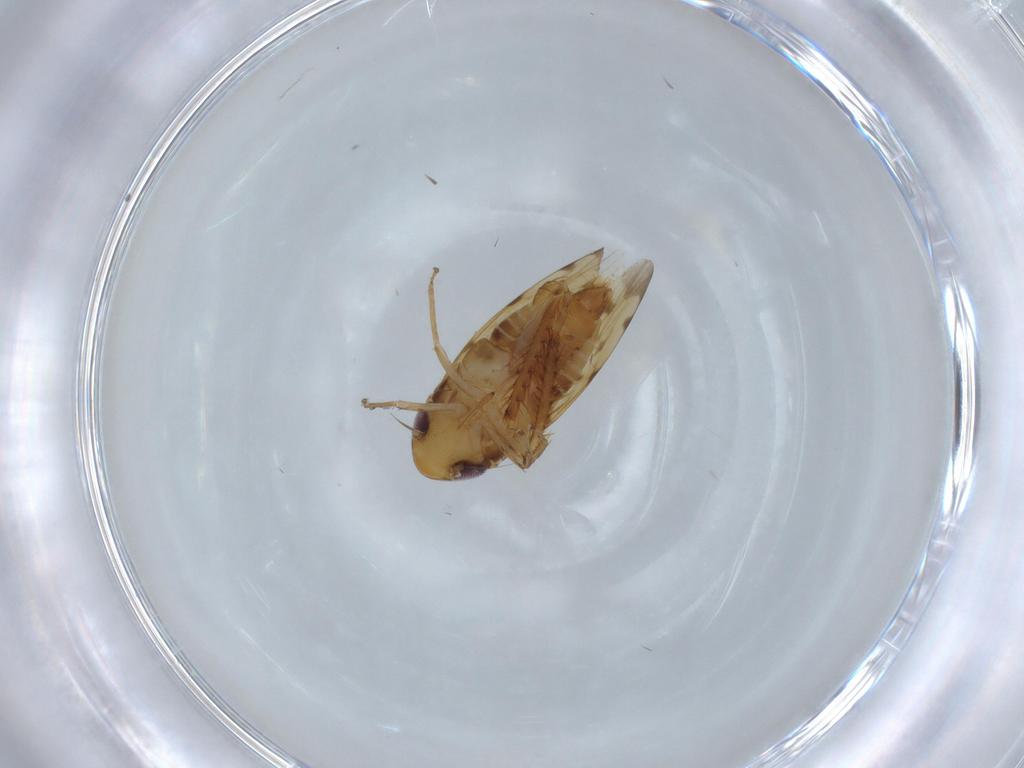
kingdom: Animalia
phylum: Arthropoda
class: Insecta
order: Hemiptera
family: Cicadellidae
